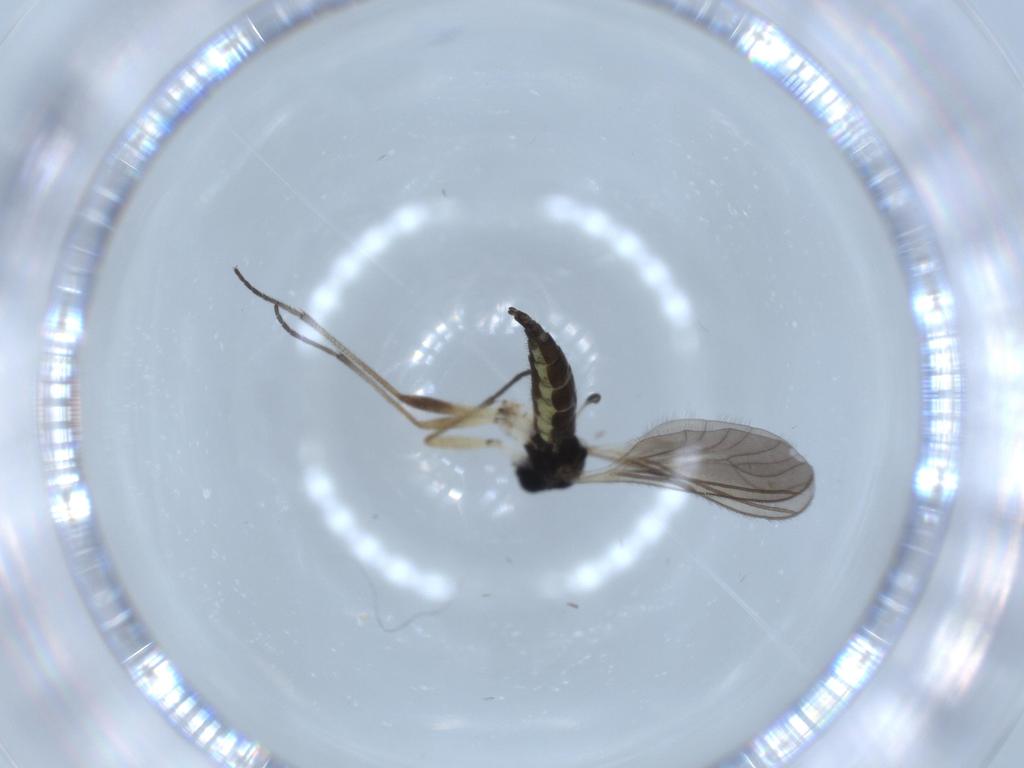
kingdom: Animalia
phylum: Arthropoda
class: Insecta
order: Diptera
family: Sciaridae
